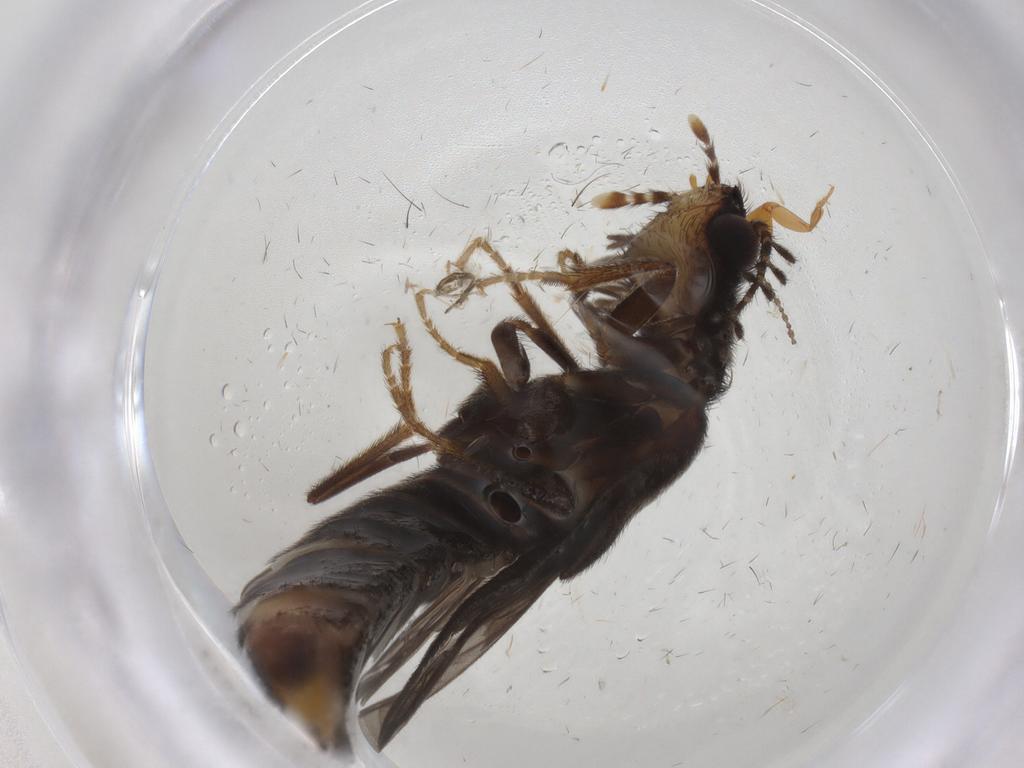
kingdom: Animalia
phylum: Arthropoda
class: Insecta
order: Coleoptera
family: Staphylinidae
